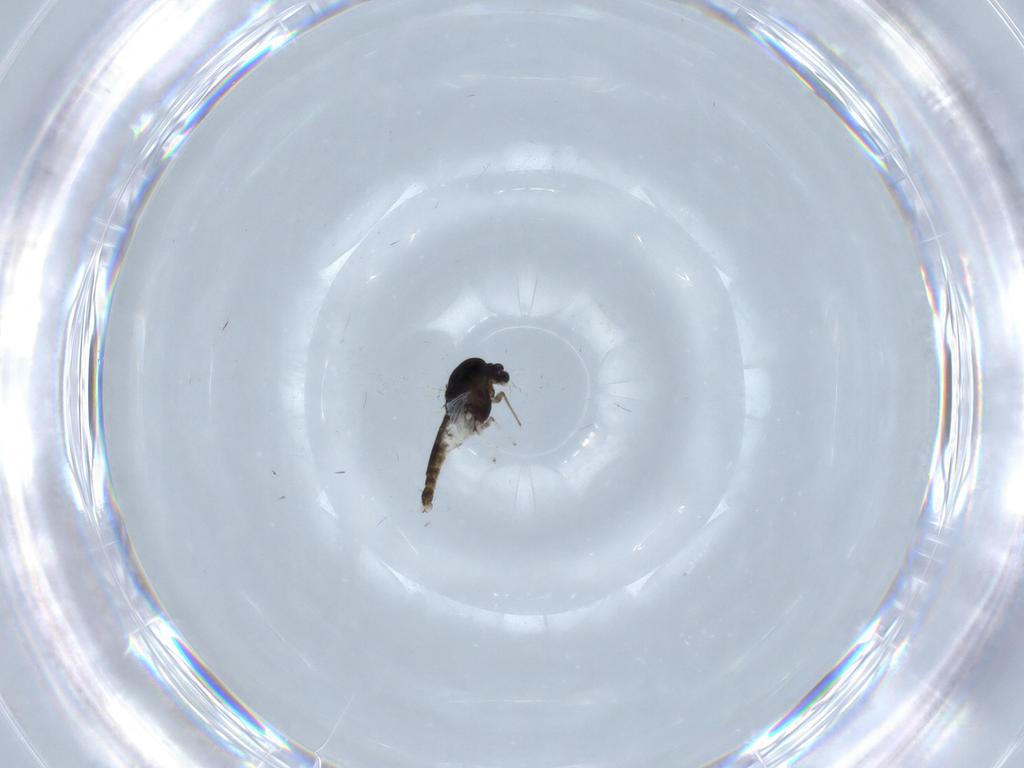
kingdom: Animalia
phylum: Arthropoda
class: Insecta
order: Diptera
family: Chironomidae
